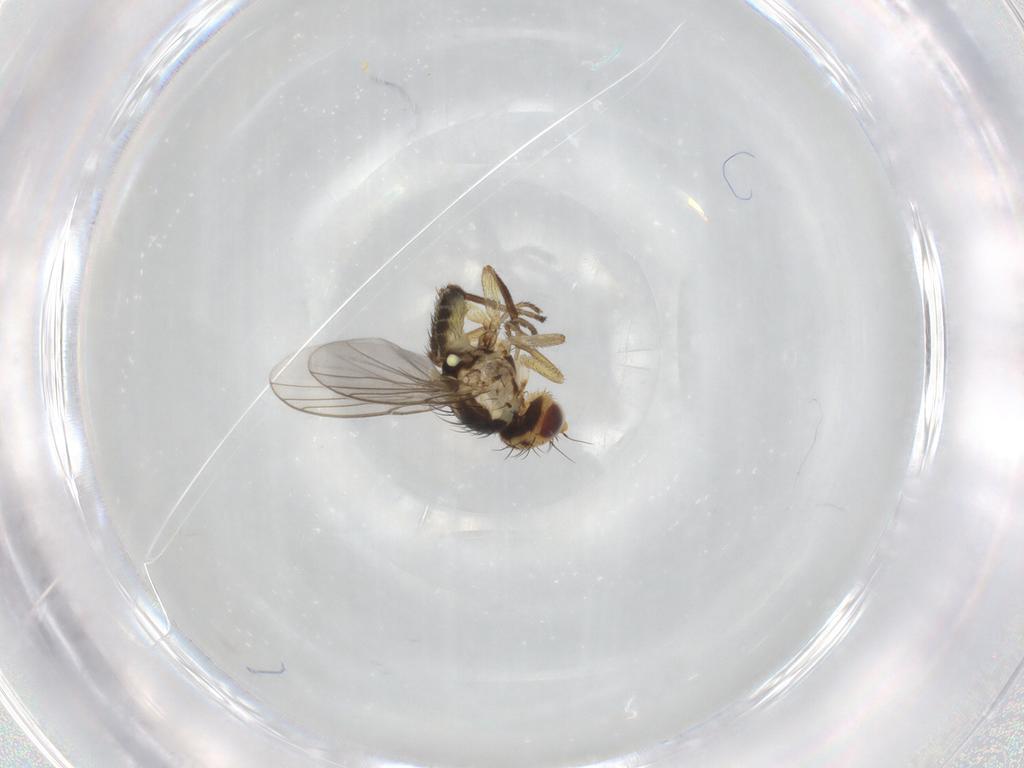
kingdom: Animalia
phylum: Arthropoda
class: Insecta
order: Diptera
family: Agromyzidae
